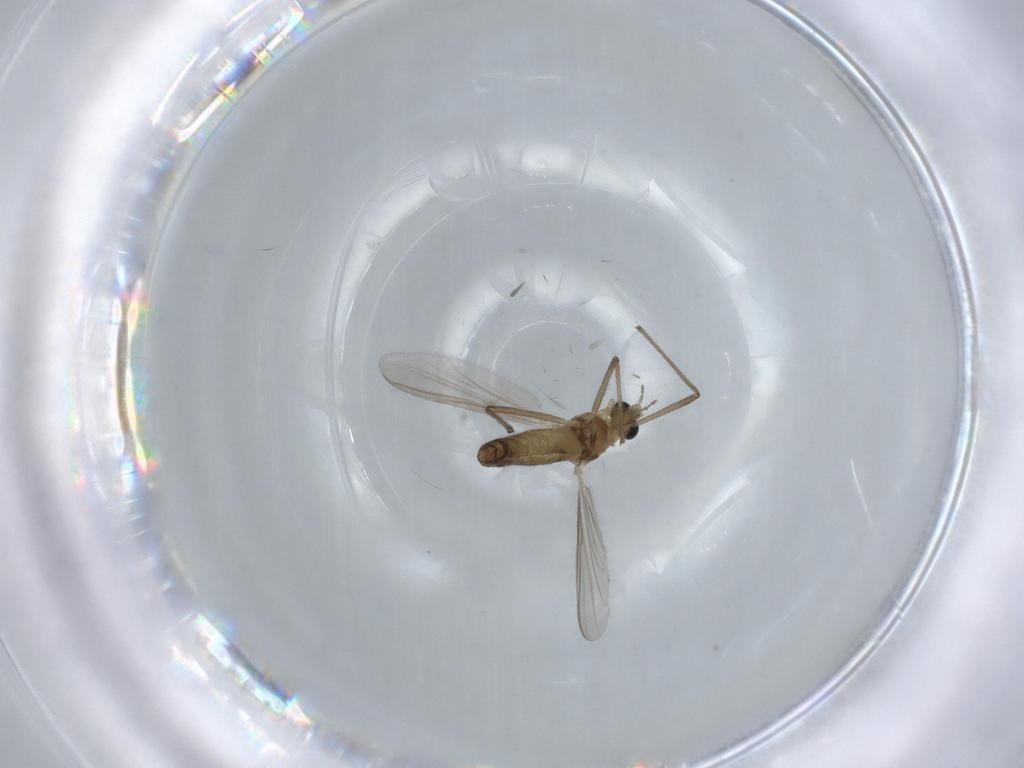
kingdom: Animalia
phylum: Arthropoda
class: Insecta
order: Diptera
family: Chironomidae
